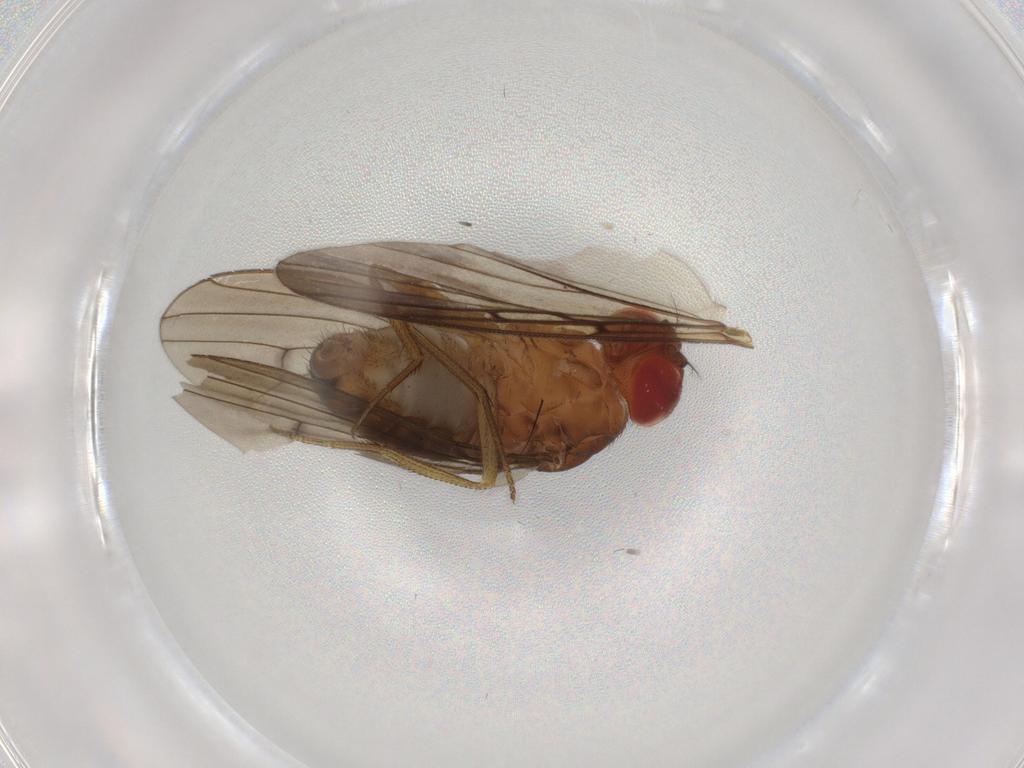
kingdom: Animalia
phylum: Arthropoda
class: Insecta
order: Diptera
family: Drosophilidae
